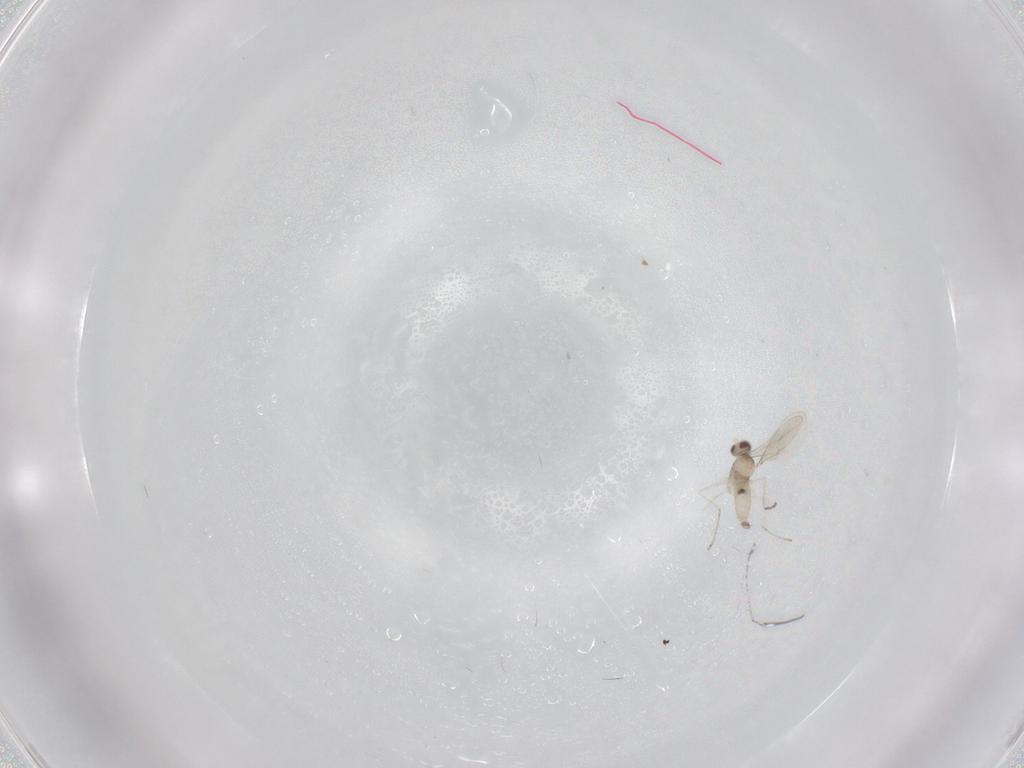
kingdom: Animalia
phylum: Arthropoda
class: Insecta
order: Diptera
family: Cecidomyiidae
